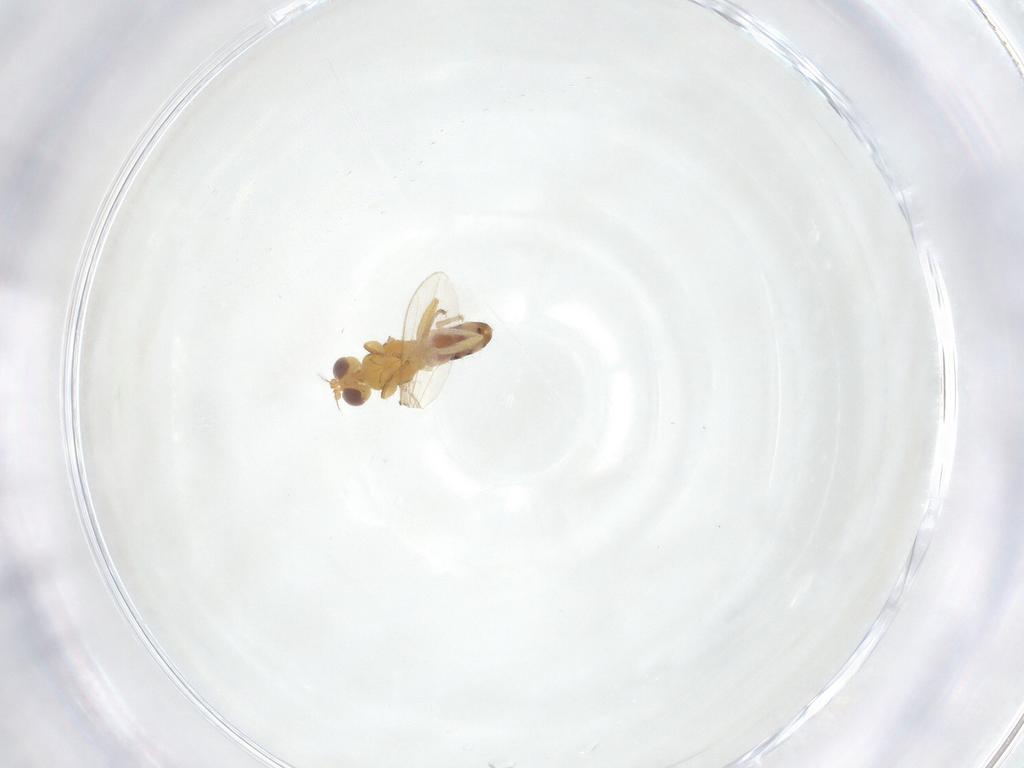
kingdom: Animalia
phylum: Arthropoda
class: Insecta
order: Diptera
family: Periscelididae
